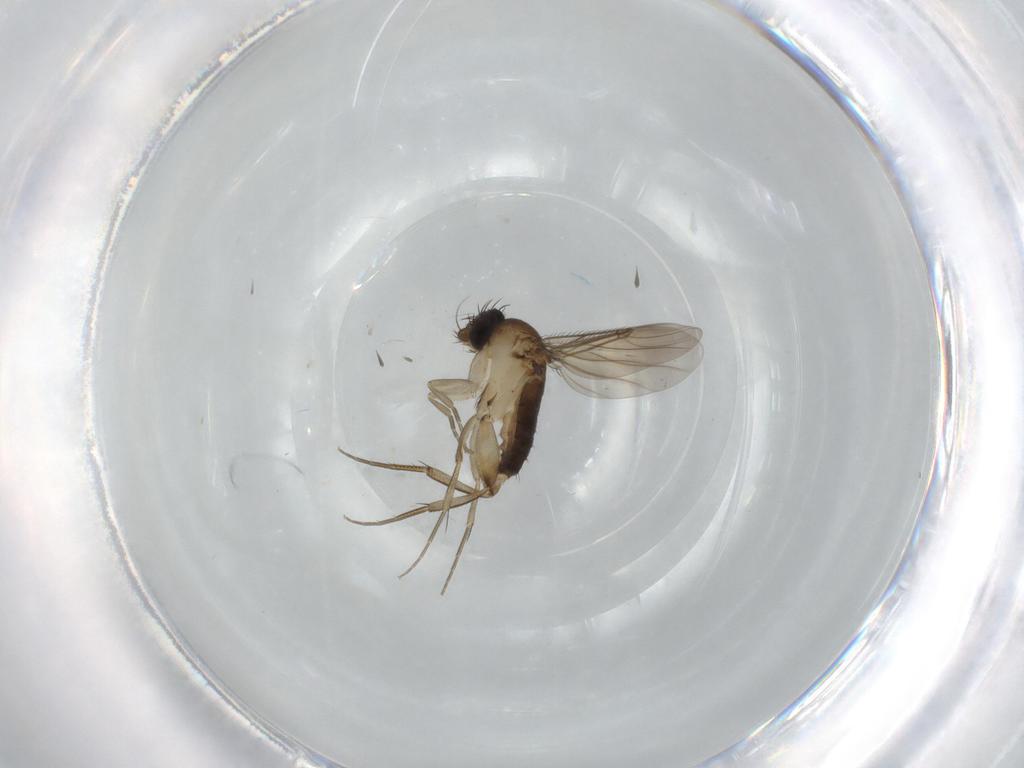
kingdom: Animalia
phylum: Arthropoda
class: Insecta
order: Diptera
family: Phoridae
